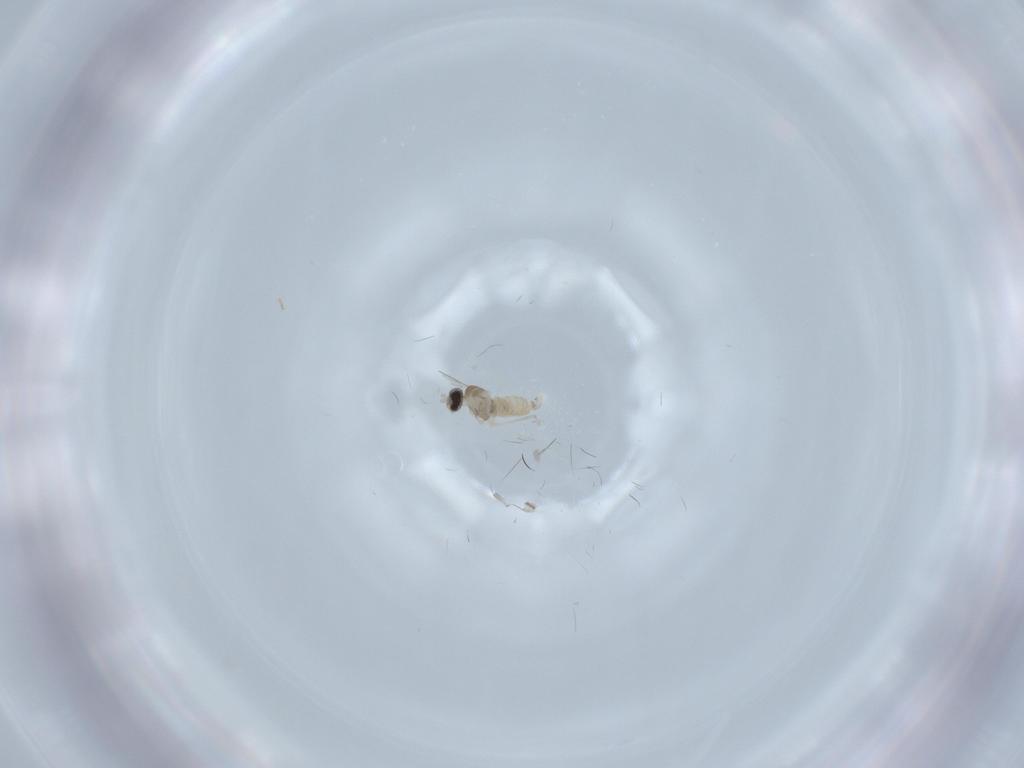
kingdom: Animalia
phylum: Arthropoda
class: Insecta
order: Diptera
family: Cecidomyiidae
